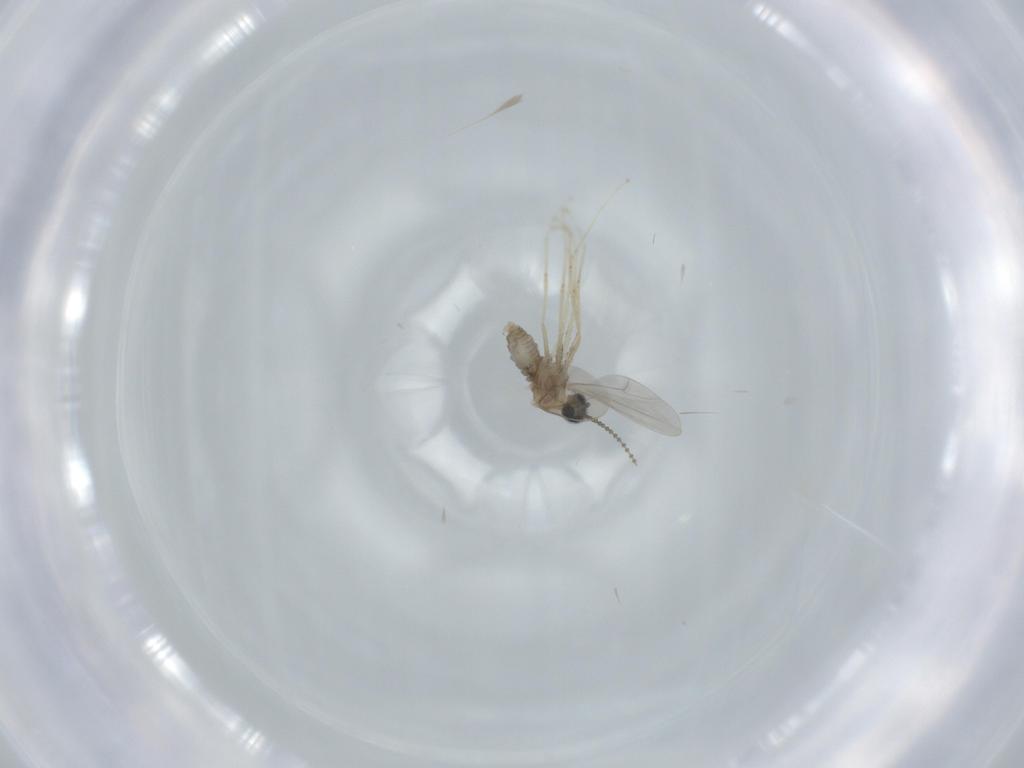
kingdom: Animalia
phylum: Arthropoda
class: Insecta
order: Diptera
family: Cecidomyiidae
